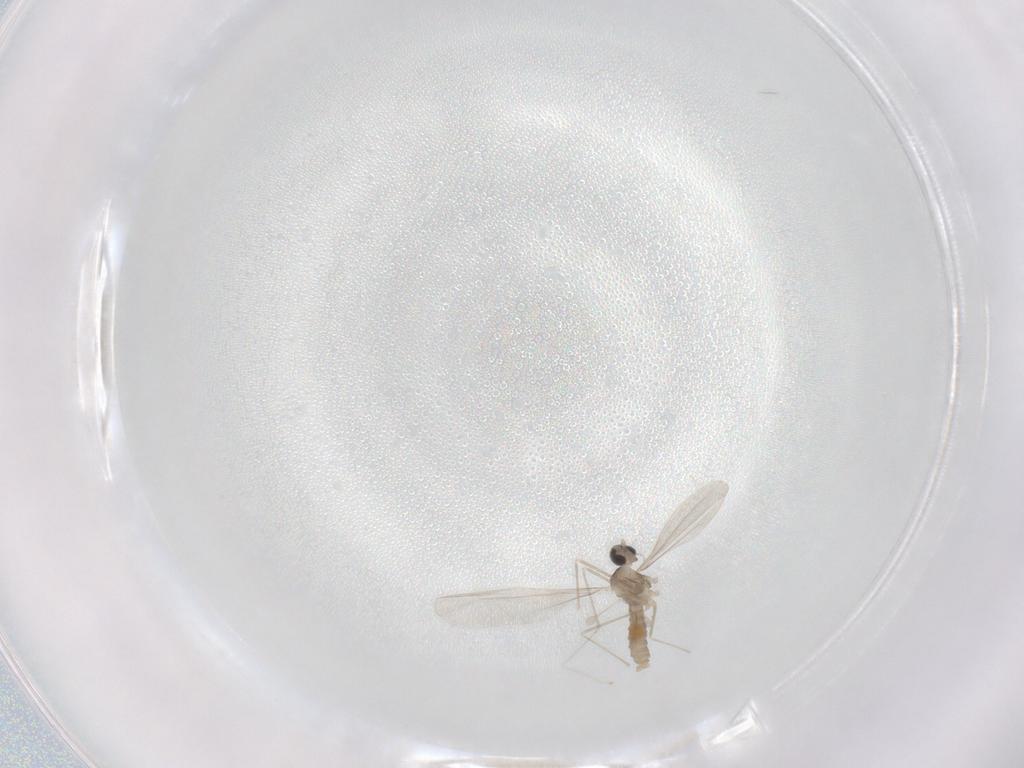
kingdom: Animalia
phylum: Arthropoda
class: Insecta
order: Diptera
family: Cecidomyiidae
